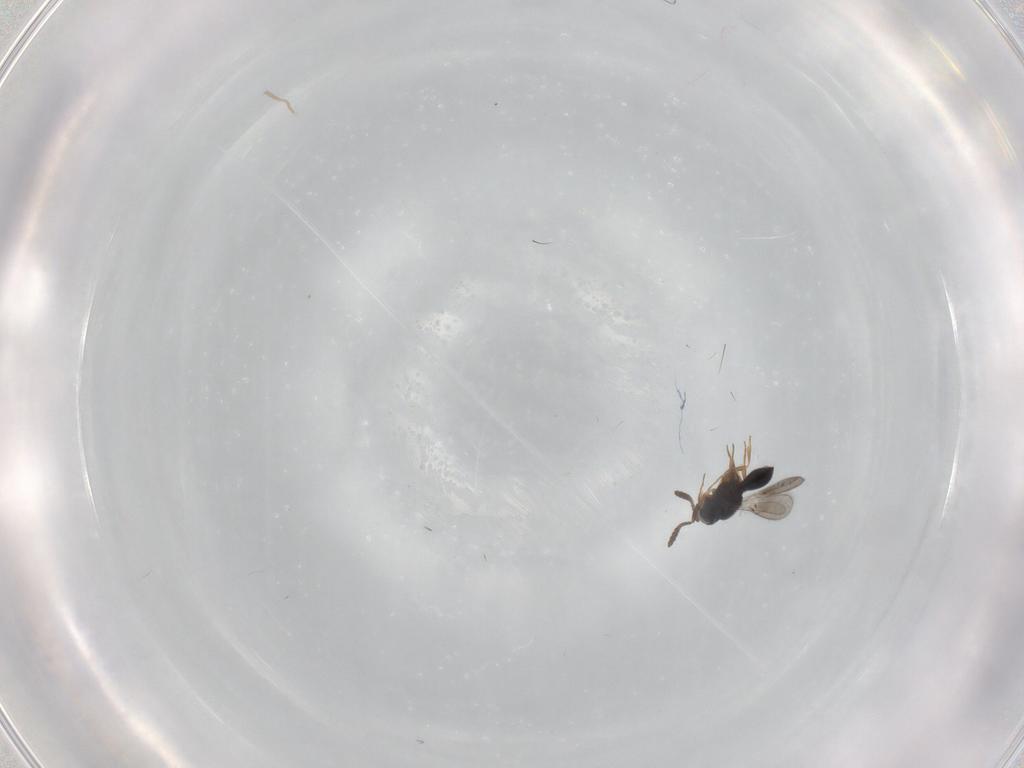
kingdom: Animalia
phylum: Arthropoda
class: Insecta
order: Hymenoptera
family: Scelionidae
